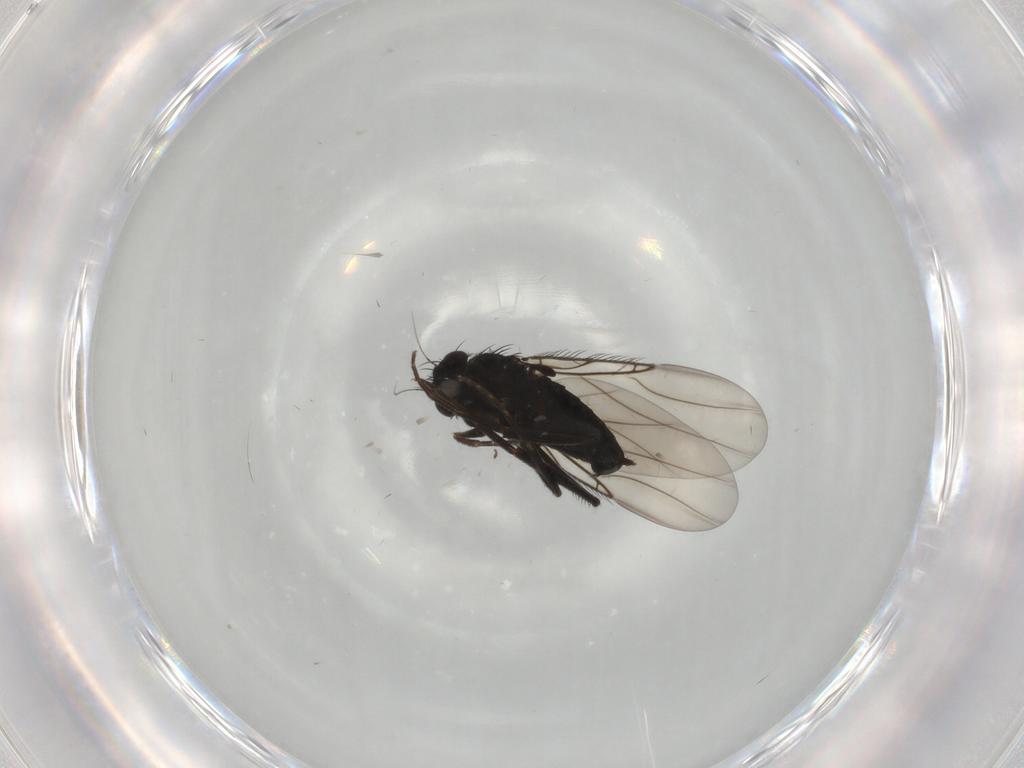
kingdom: Animalia
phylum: Arthropoda
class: Insecta
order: Diptera
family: Phoridae
